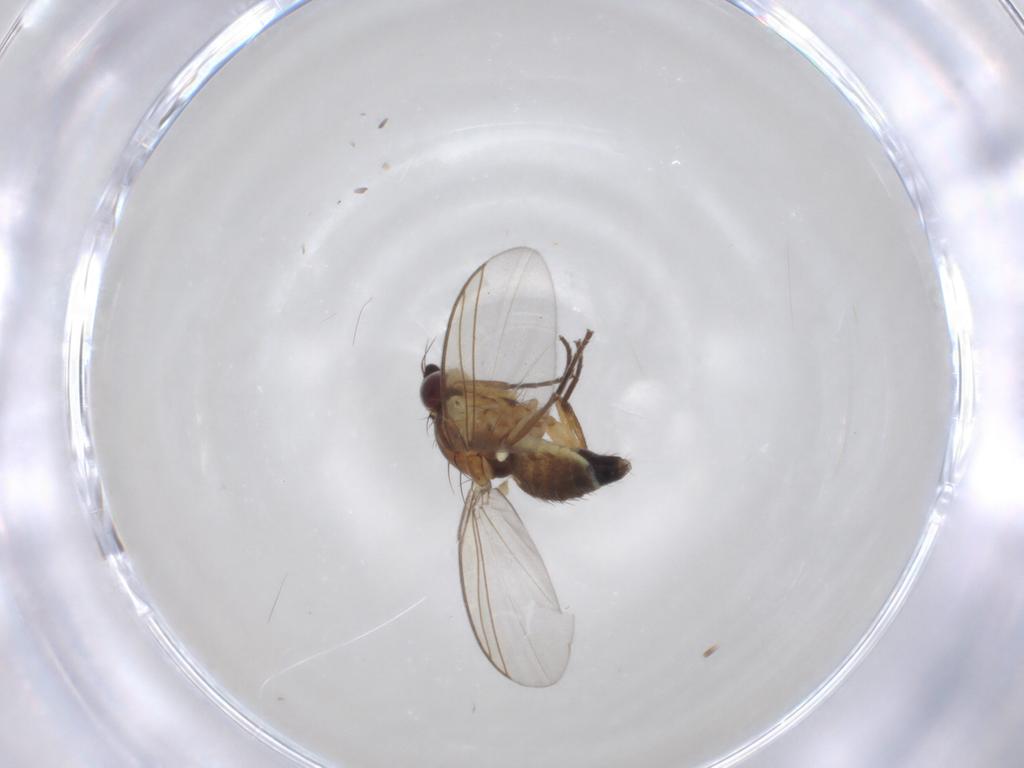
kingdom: Animalia
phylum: Arthropoda
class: Insecta
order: Diptera
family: Agromyzidae
